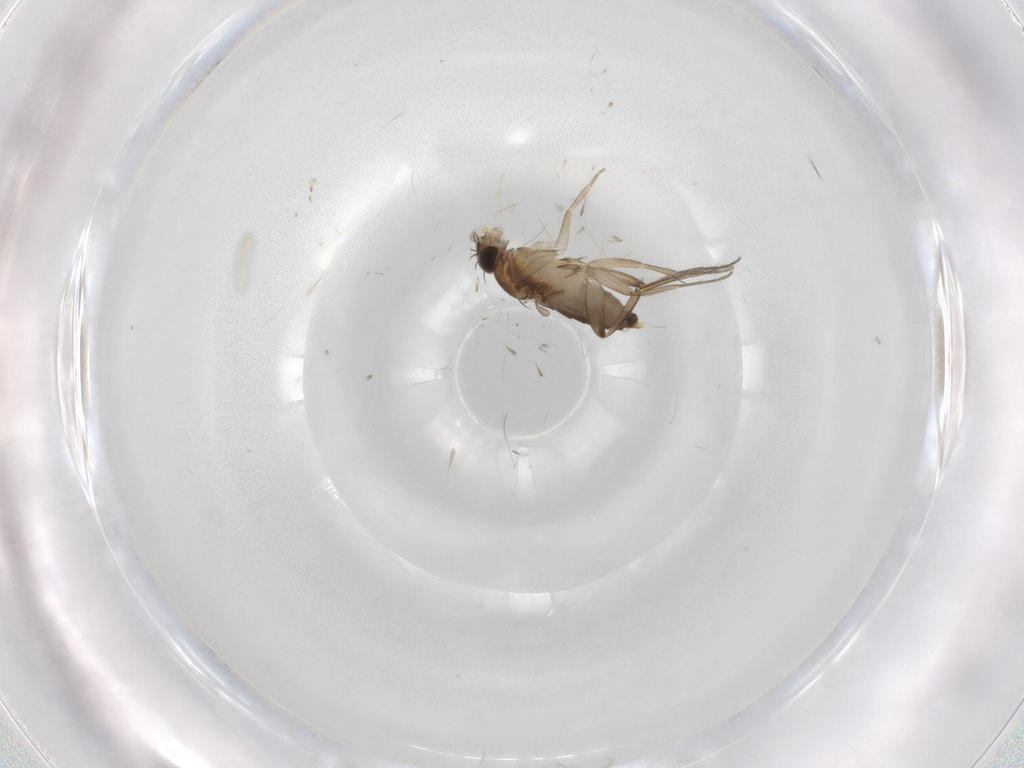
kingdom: Animalia
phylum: Arthropoda
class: Insecta
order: Diptera
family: Phoridae
